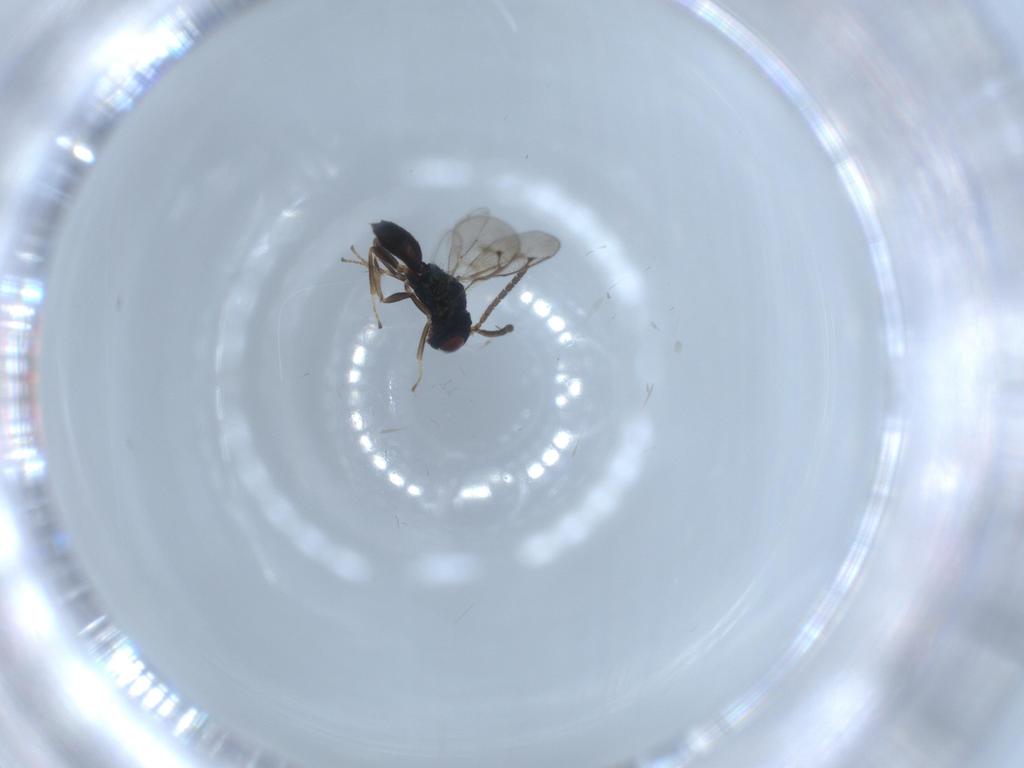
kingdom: Animalia
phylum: Arthropoda
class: Insecta
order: Hymenoptera
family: Pteromalidae
